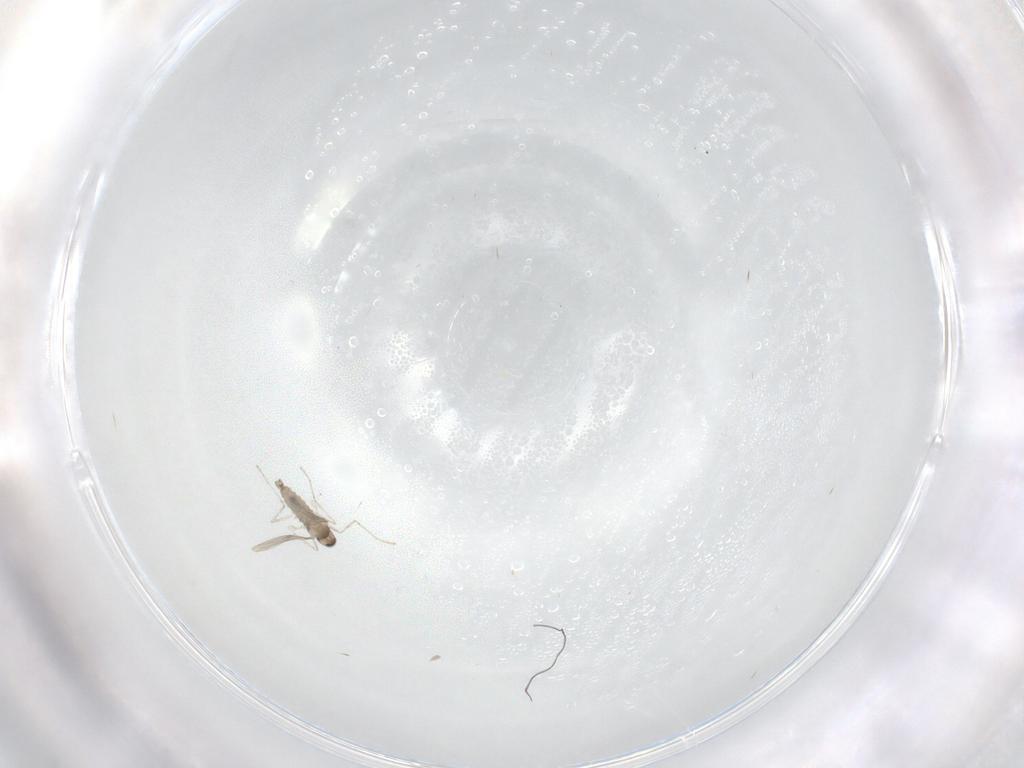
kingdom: Animalia
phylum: Arthropoda
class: Insecta
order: Diptera
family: Cecidomyiidae
